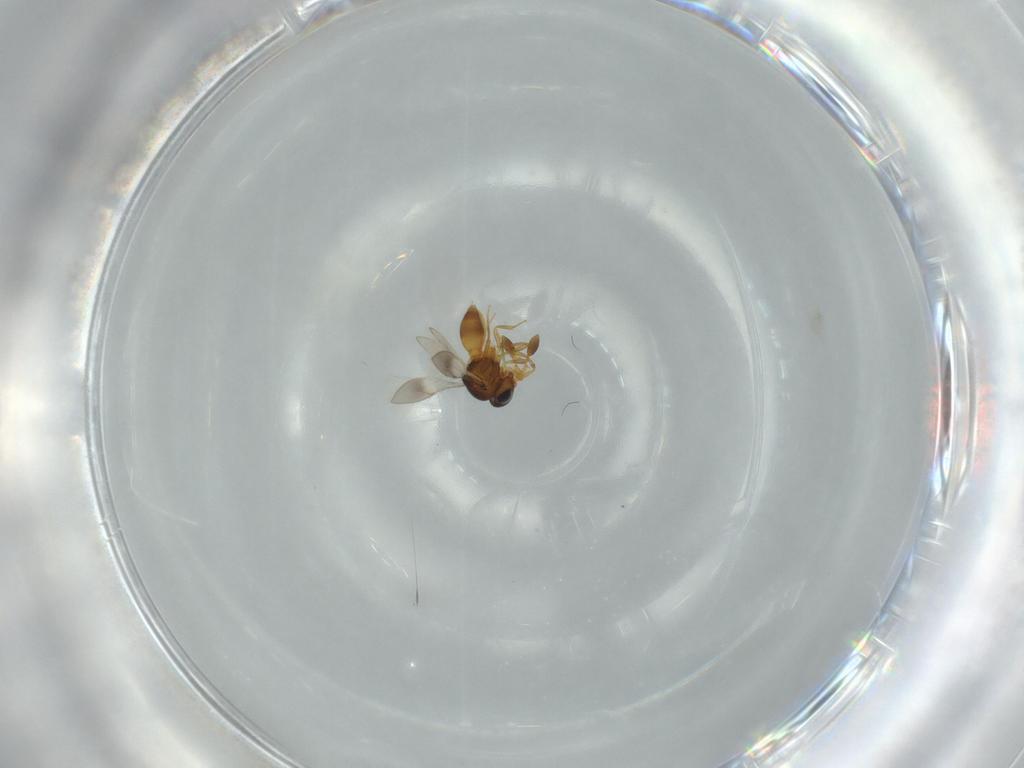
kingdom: Animalia
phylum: Arthropoda
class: Insecta
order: Hymenoptera
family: Scelionidae
